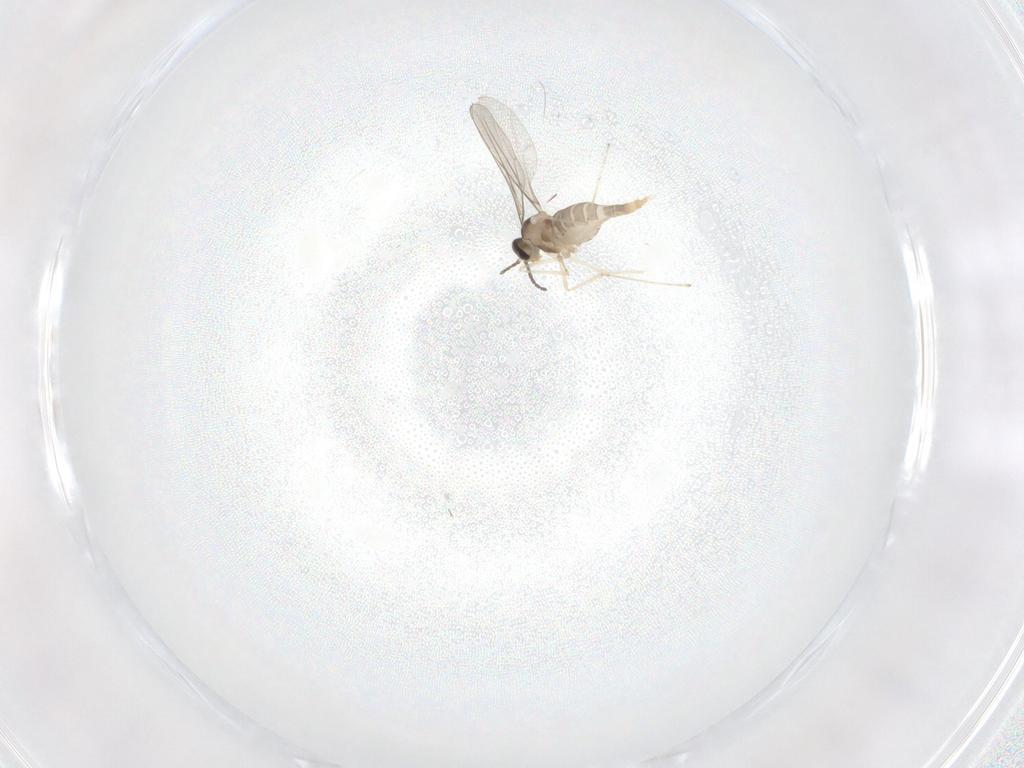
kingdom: Animalia
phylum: Arthropoda
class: Insecta
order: Diptera
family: Cecidomyiidae
